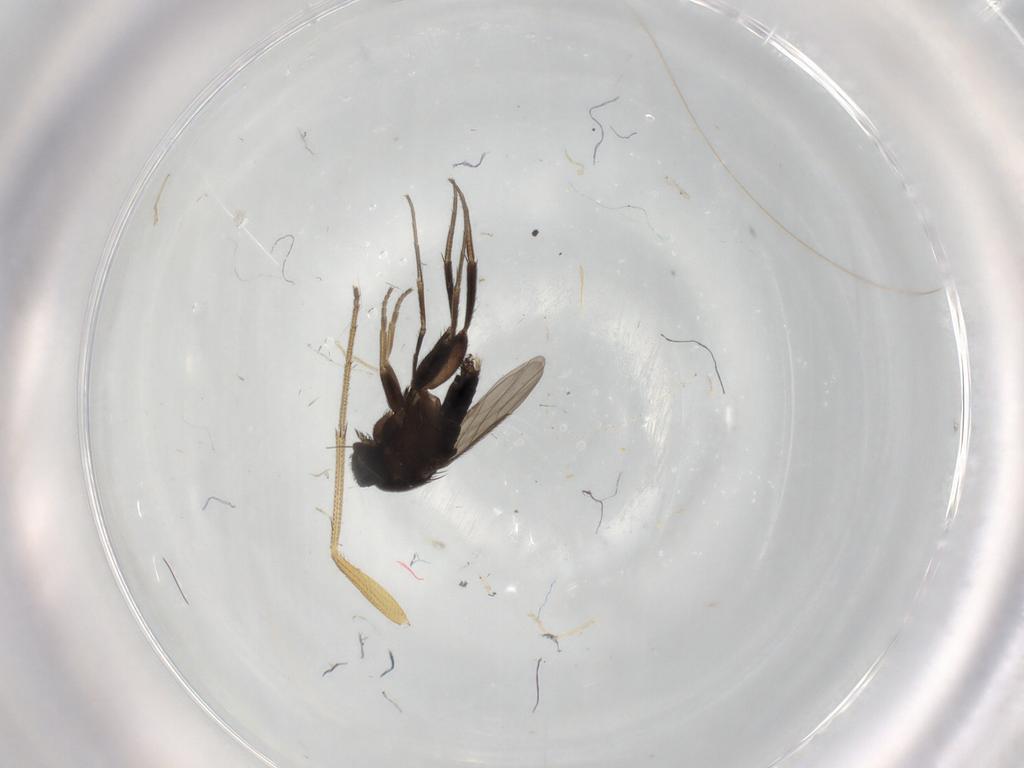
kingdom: Animalia
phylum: Arthropoda
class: Insecta
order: Diptera
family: Phoridae
